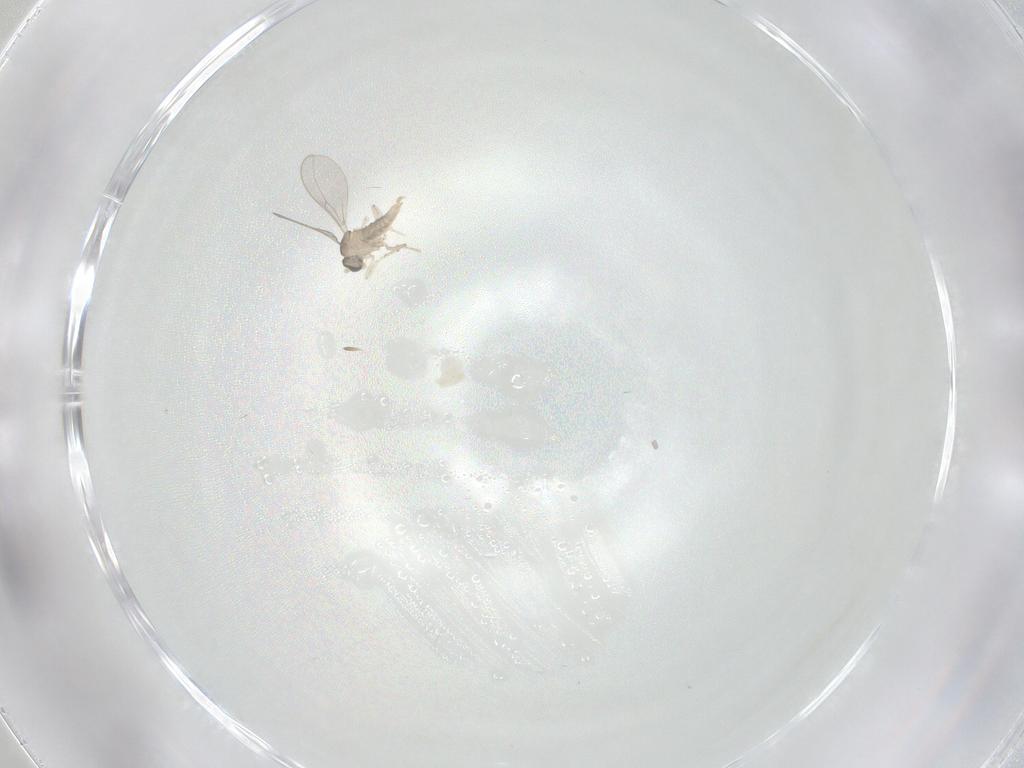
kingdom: Animalia
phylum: Arthropoda
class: Insecta
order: Diptera
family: Cecidomyiidae
